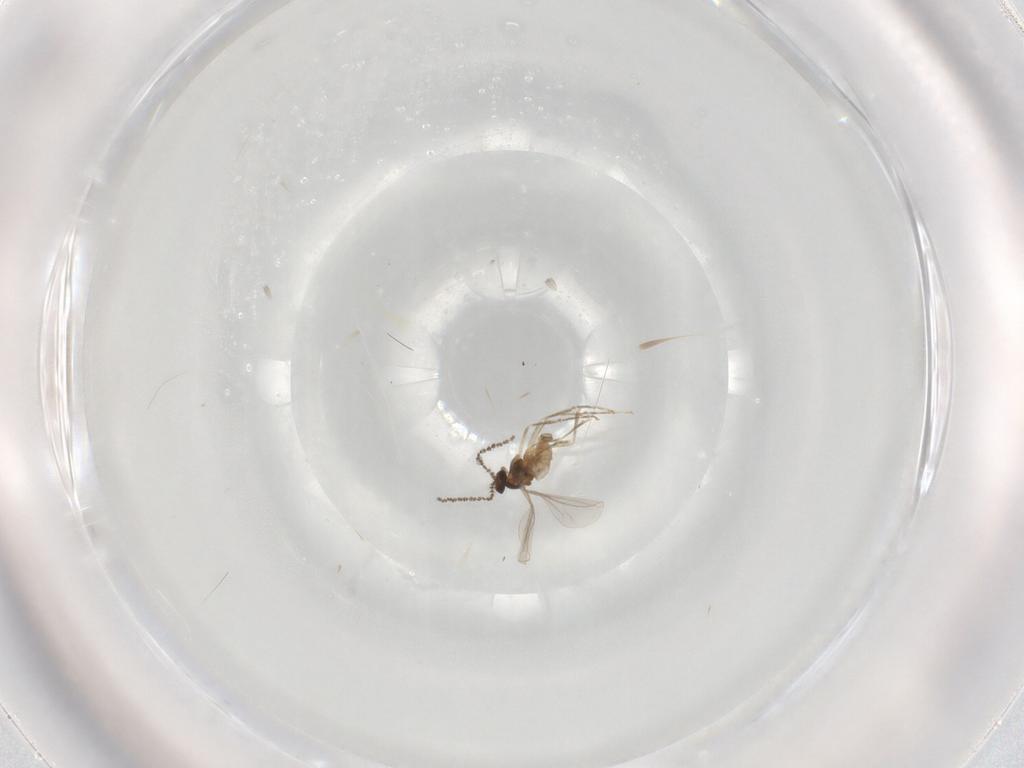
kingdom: Animalia
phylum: Arthropoda
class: Insecta
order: Diptera
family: Cecidomyiidae
